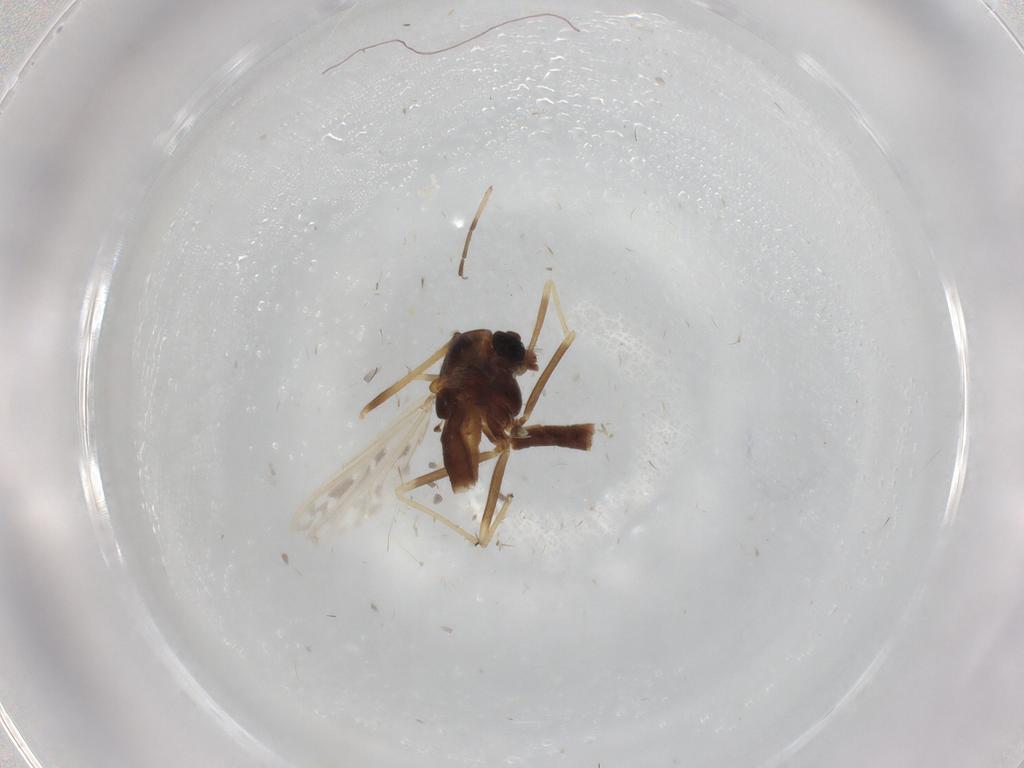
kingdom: Animalia
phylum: Arthropoda
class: Insecta
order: Diptera
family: Chironomidae
